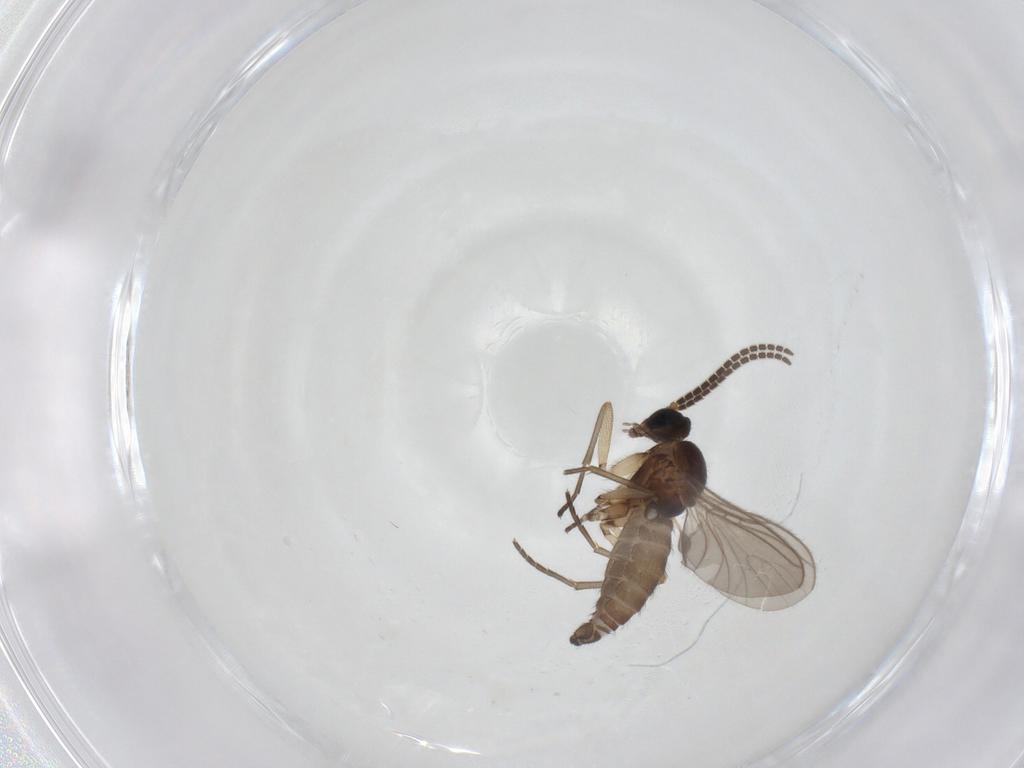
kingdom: Animalia
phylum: Arthropoda
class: Insecta
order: Diptera
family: Sciaridae
